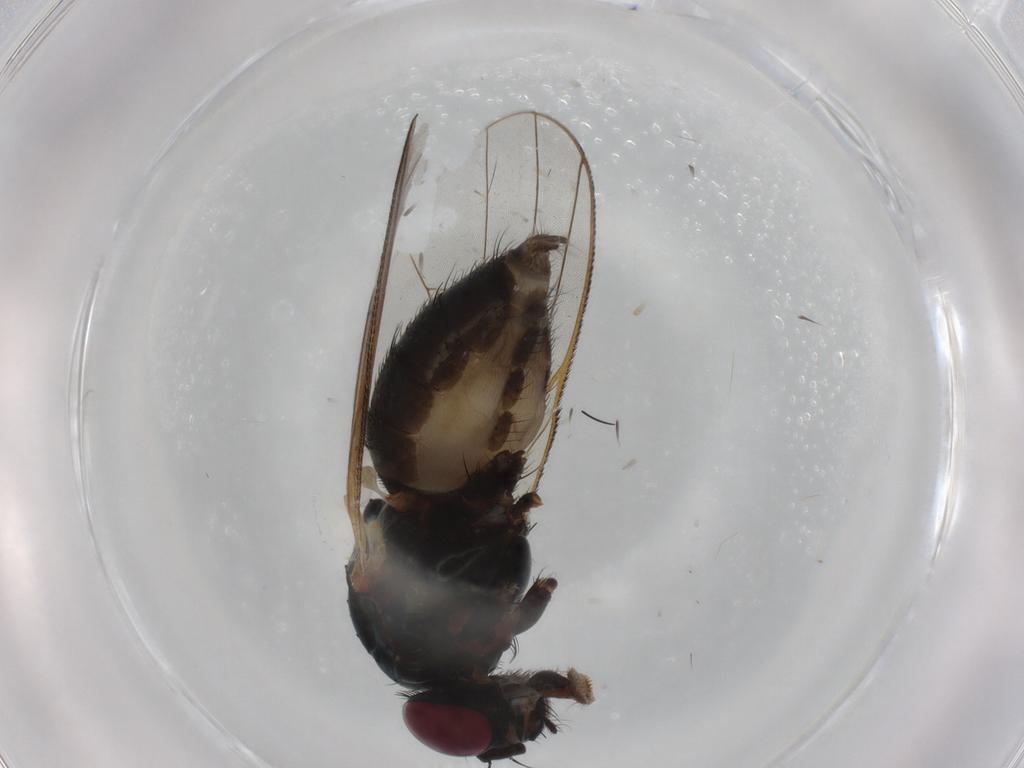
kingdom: Animalia
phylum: Arthropoda
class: Insecta
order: Diptera
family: Fannia
